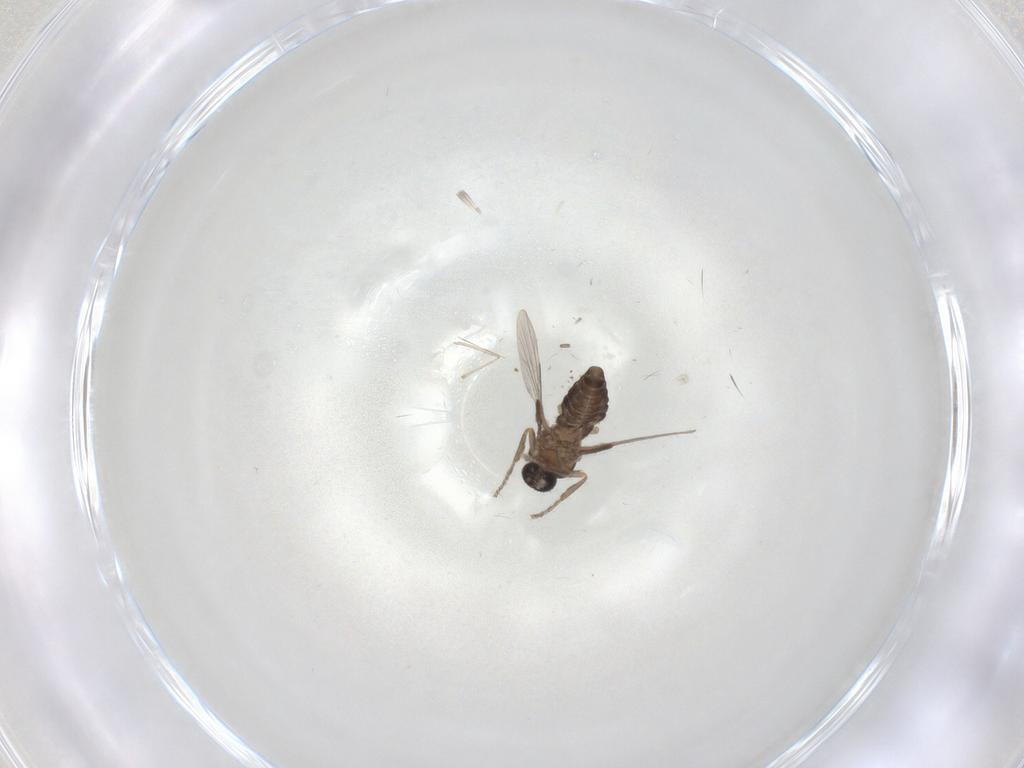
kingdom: Animalia
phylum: Arthropoda
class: Insecta
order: Diptera
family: Ceratopogonidae
